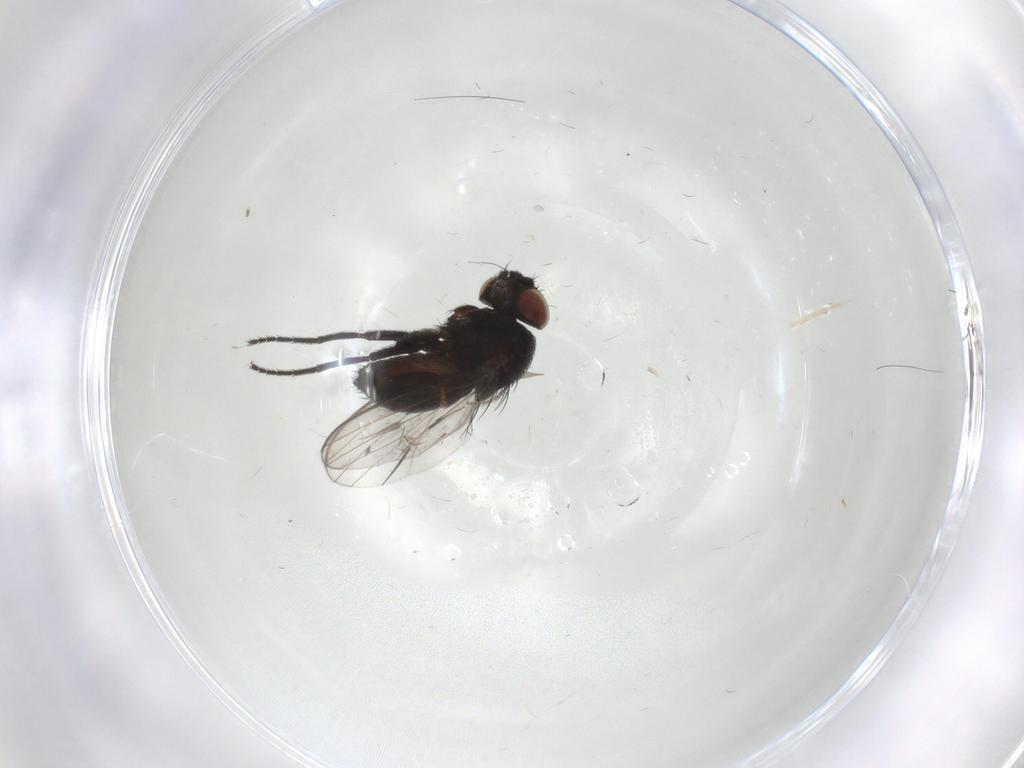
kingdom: Animalia
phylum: Arthropoda
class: Insecta
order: Diptera
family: Milichiidae
